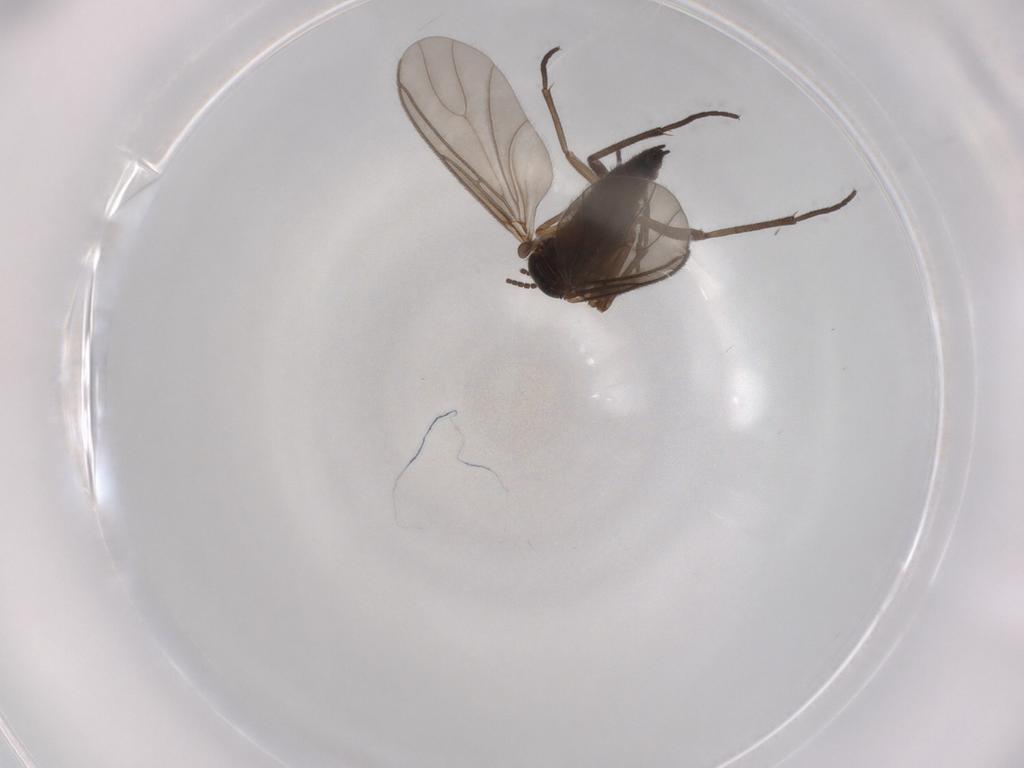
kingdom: Animalia
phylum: Arthropoda
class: Insecta
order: Diptera
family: Sciaridae
